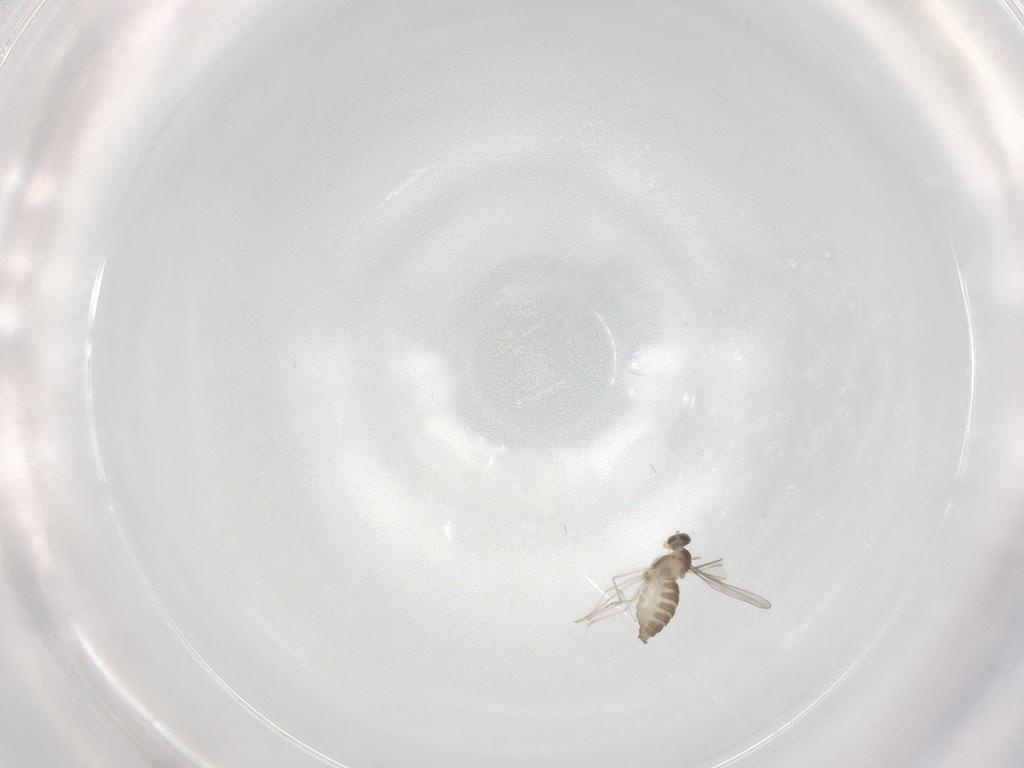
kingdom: Animalia
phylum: Arthropoda
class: Insecta
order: Diptera
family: Cecidomyiidae
